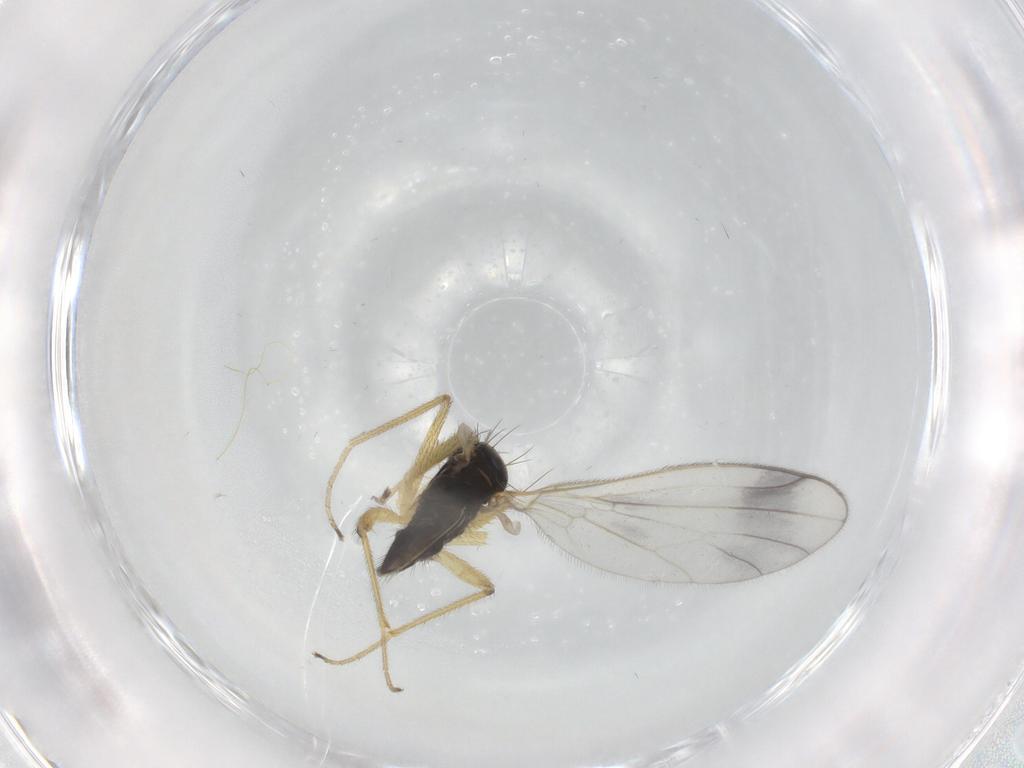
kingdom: Animalia
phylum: Arthropoda
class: Insecta
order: Diptera
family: Empididae
